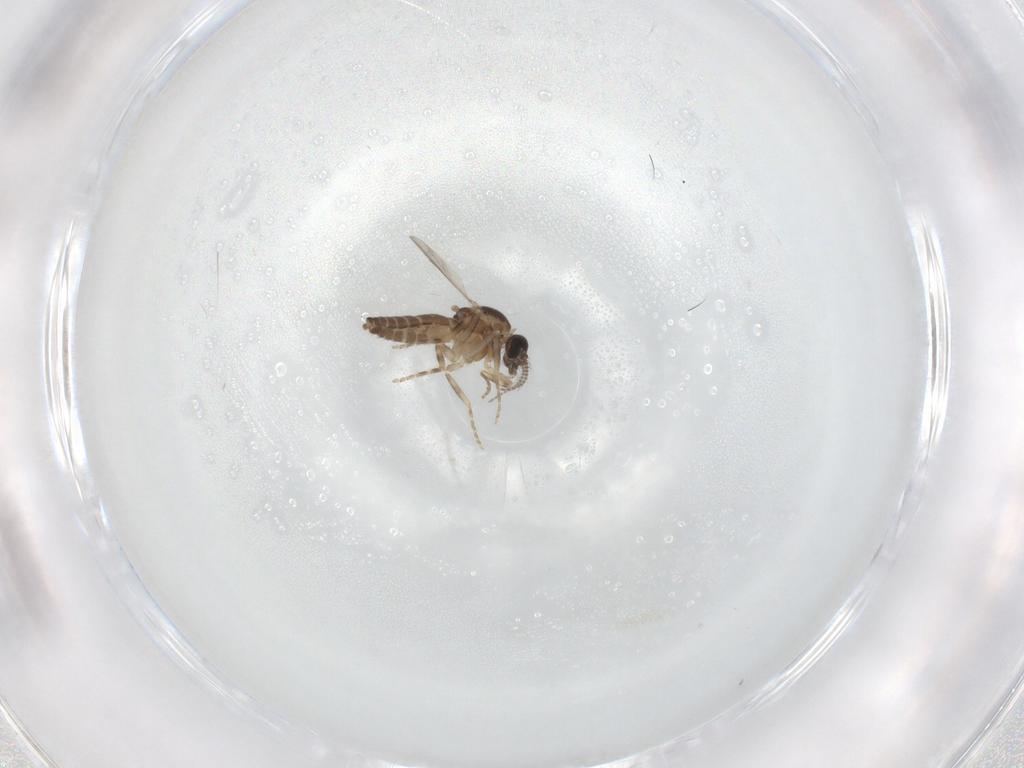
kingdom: Animalia
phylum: Arthropoda
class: Insecta
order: Diptera
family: Ceratopogonidae
